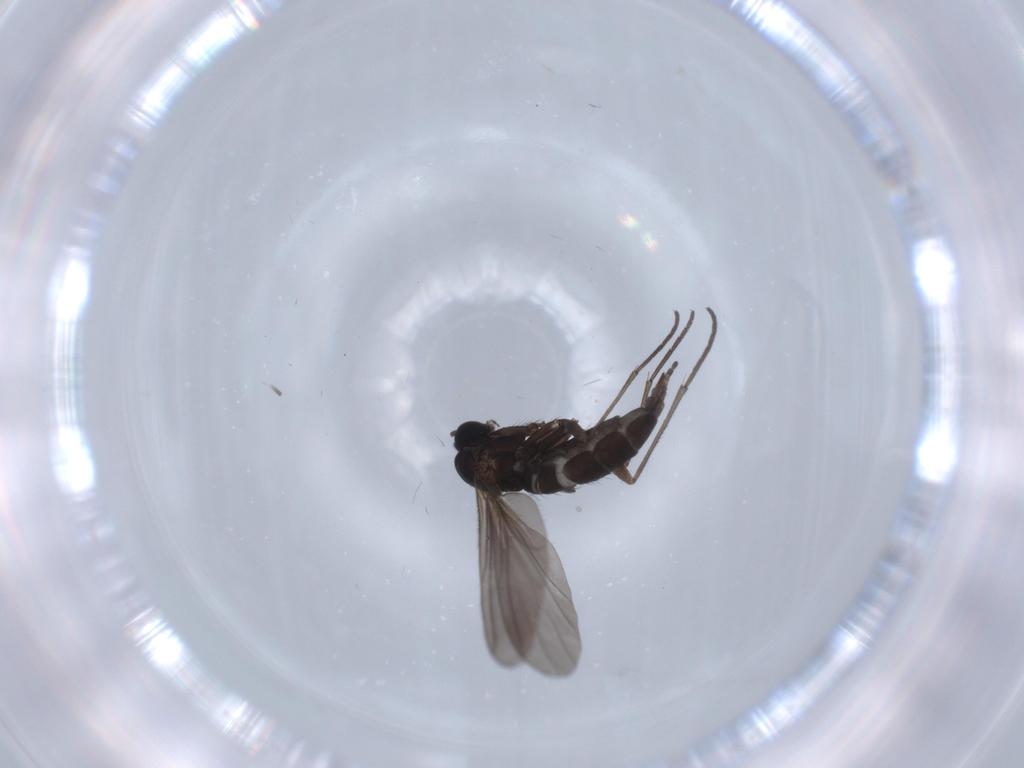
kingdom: Animalia
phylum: Arthropoda
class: Insecta
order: Diptera
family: Sciaridae
